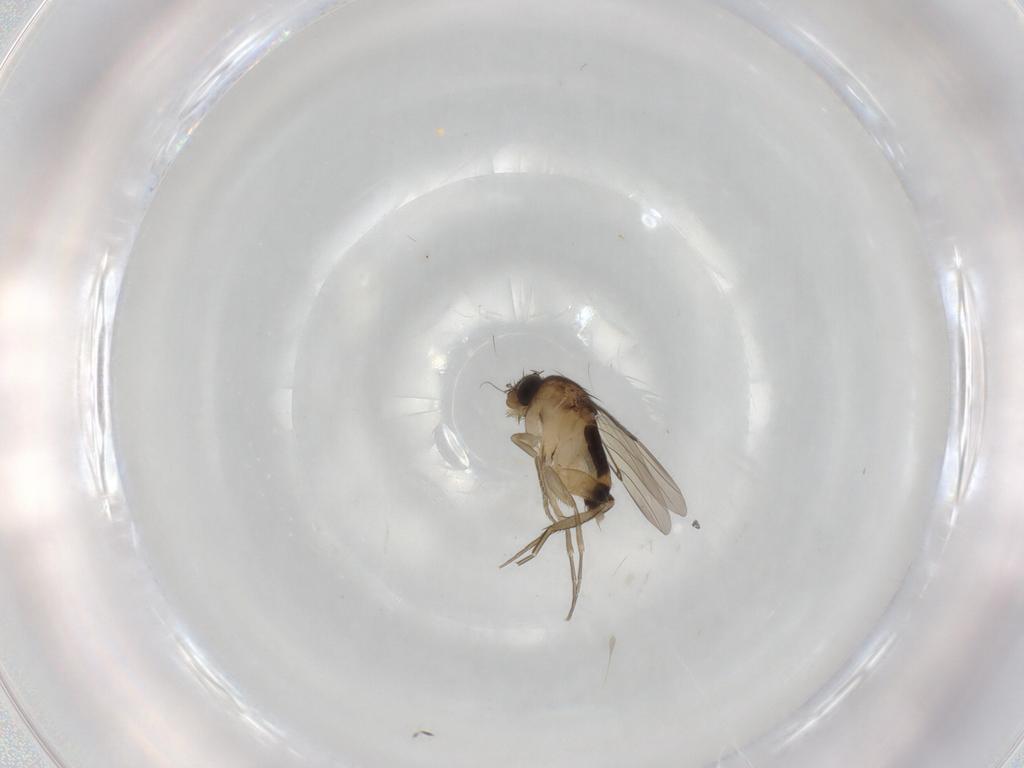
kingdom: Animalia
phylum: Arthropoda
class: Insecta
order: Diptera
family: Phoridae
